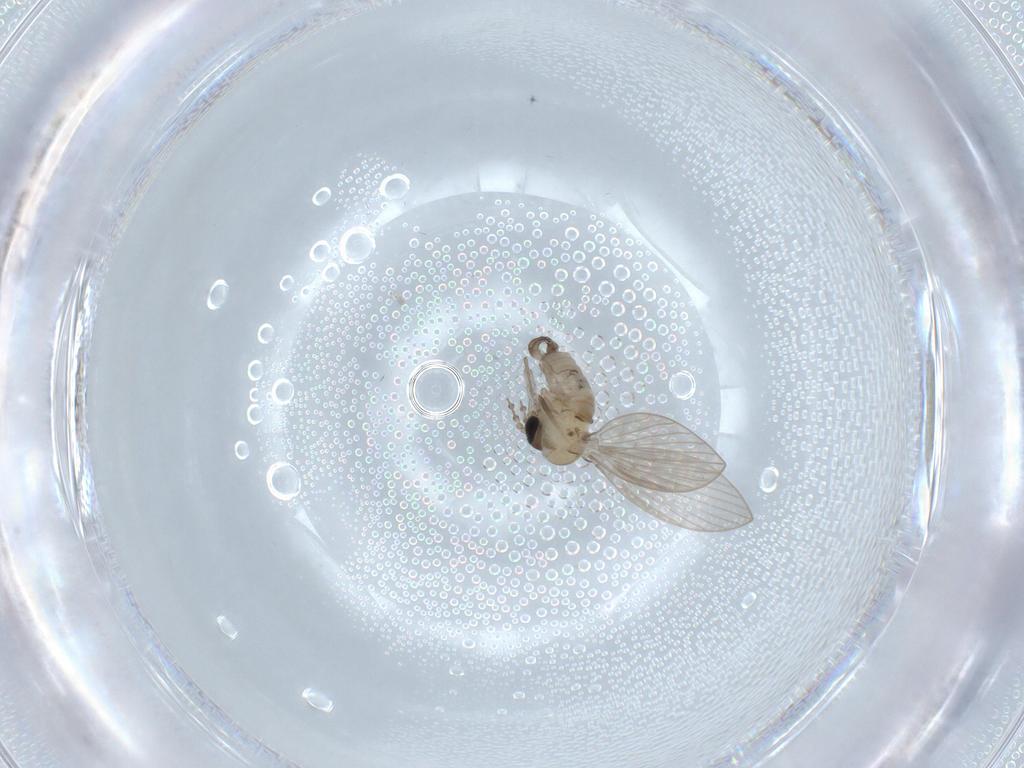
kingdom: Animalia
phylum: Arthropoda
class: Insecta
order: Diptera
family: Psychodidae
